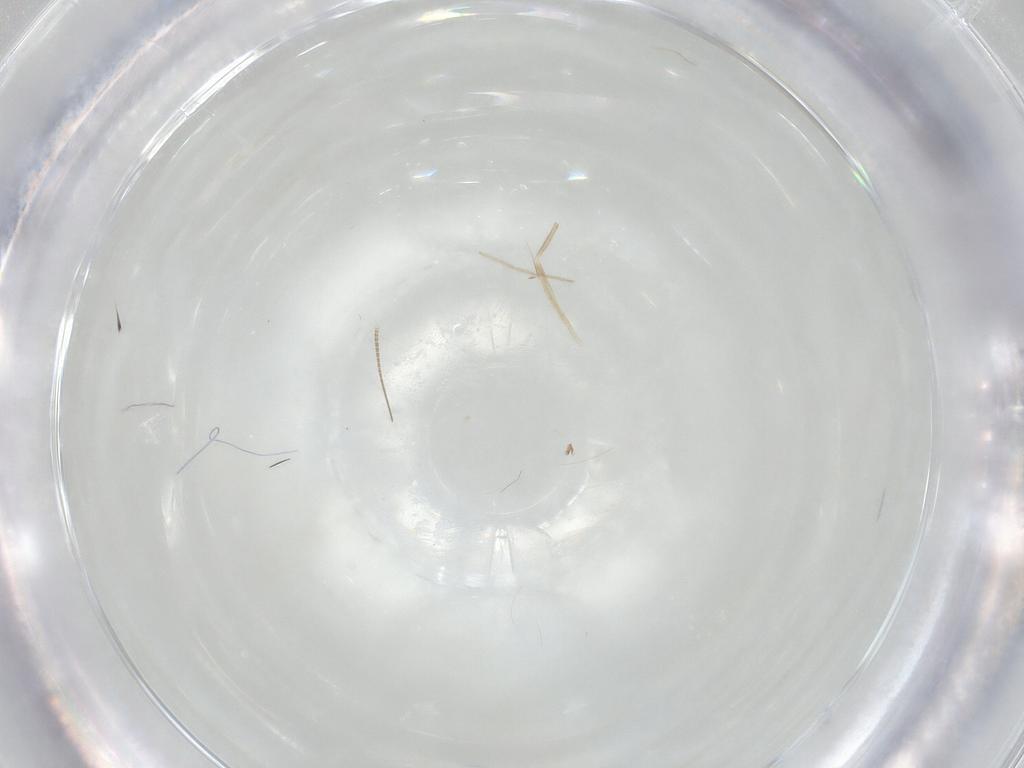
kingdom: Animalia
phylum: Arthropoda
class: Insecta
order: Diptera
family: Chironomidae
